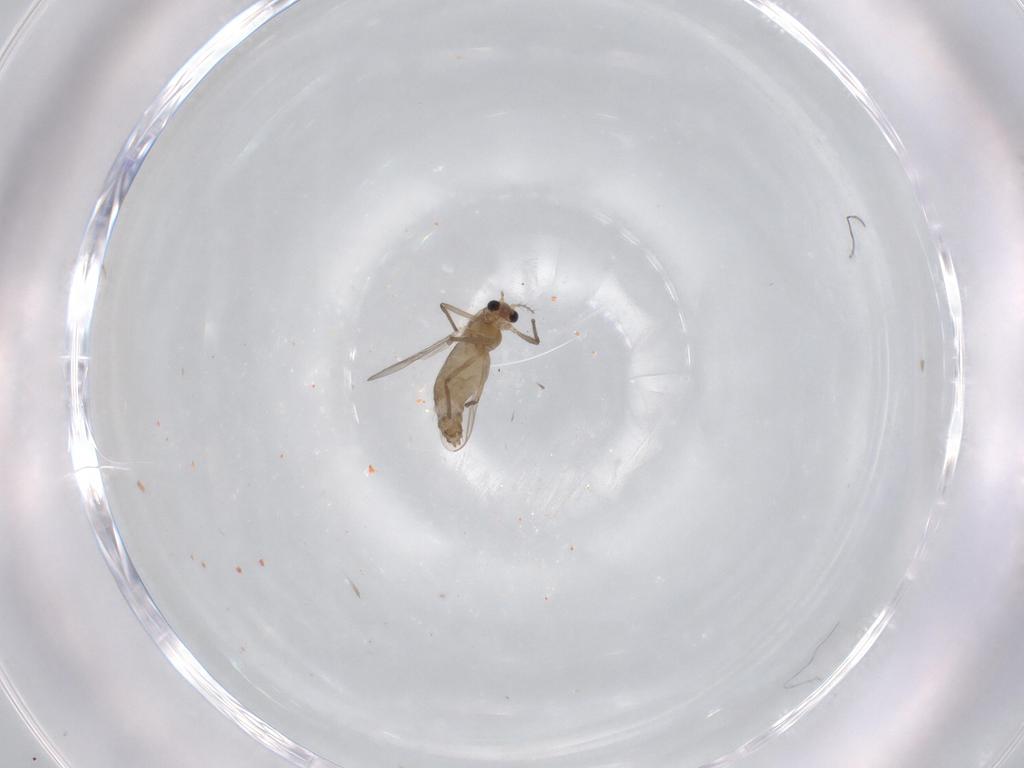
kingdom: Animalia
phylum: Arthropoda
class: Insecta
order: Diptera
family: Chironomidae
